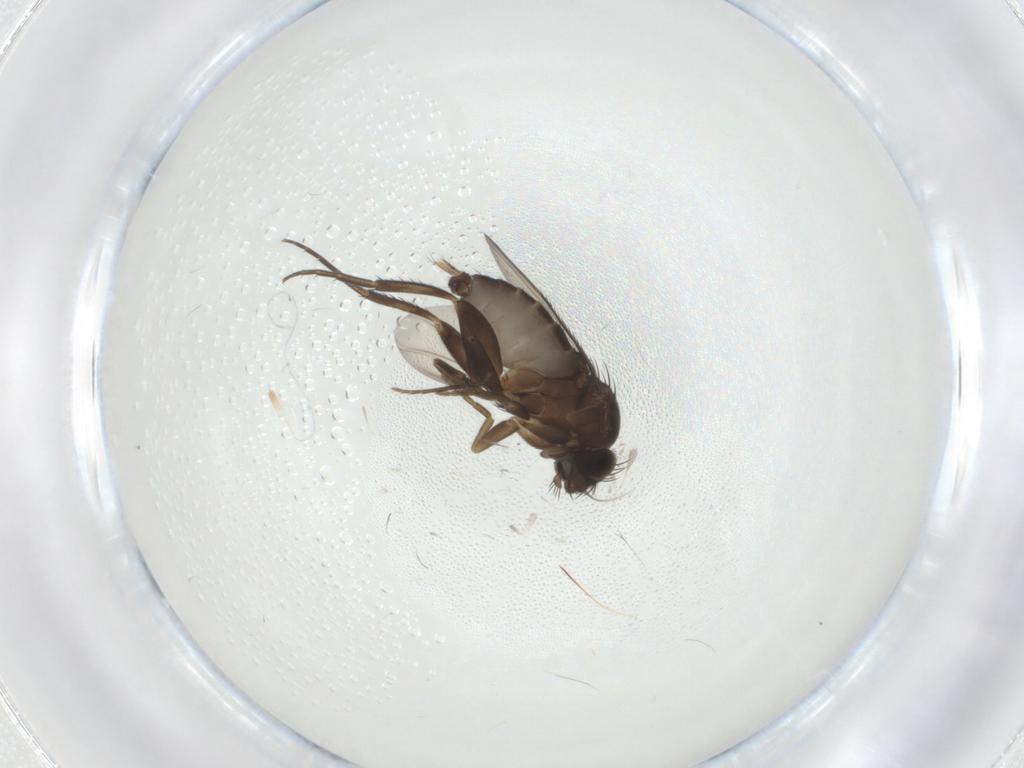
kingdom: Animalia
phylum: Arthropoda
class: Insecta
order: Diptera
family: Phoridae
